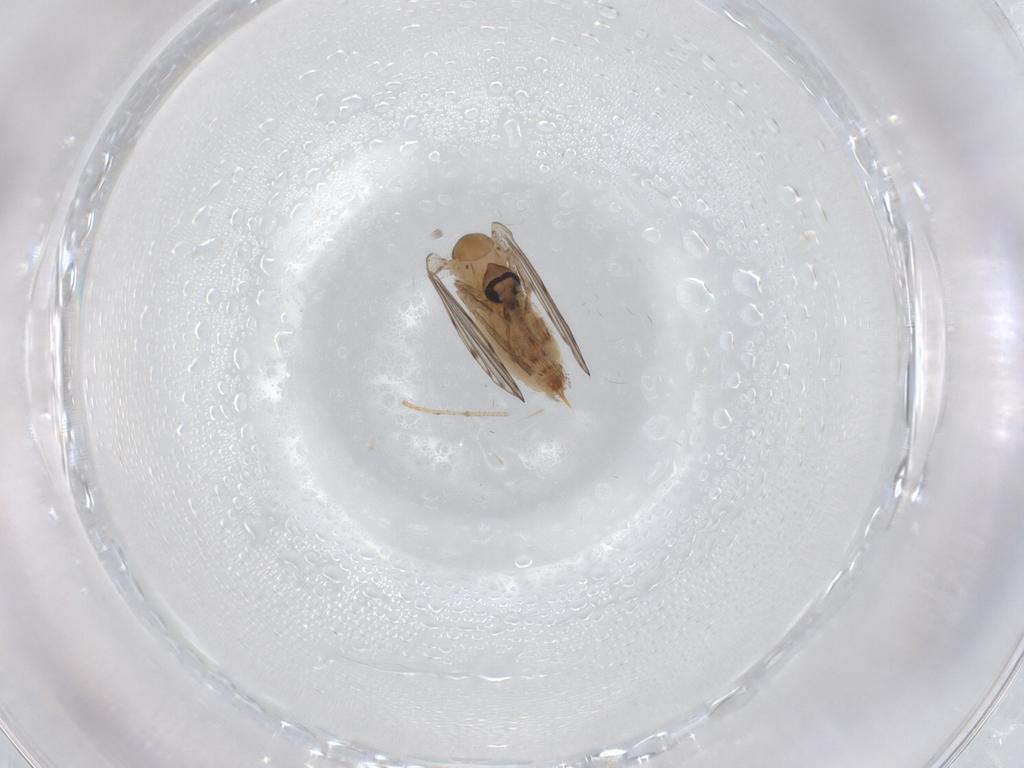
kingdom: Animalia
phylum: Arthropoda
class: Insecta
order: Diptera
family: Psychodidae
